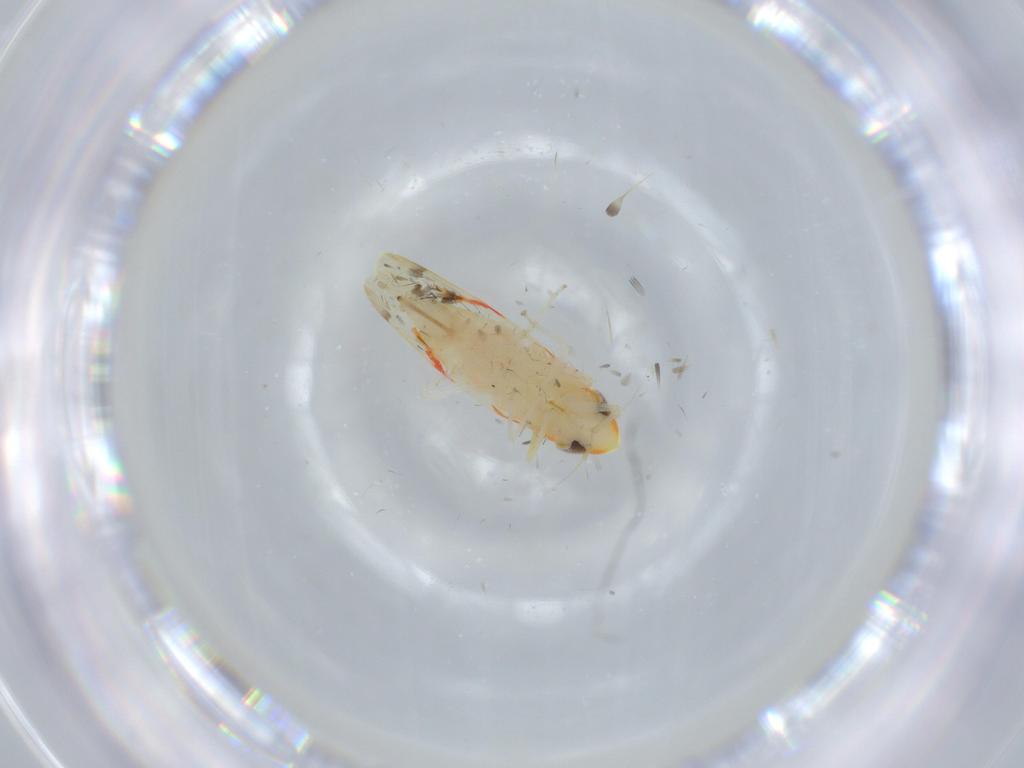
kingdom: Animalia
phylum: Arthropoda
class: Insecta
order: Hemiptera
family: Cicadellidae
